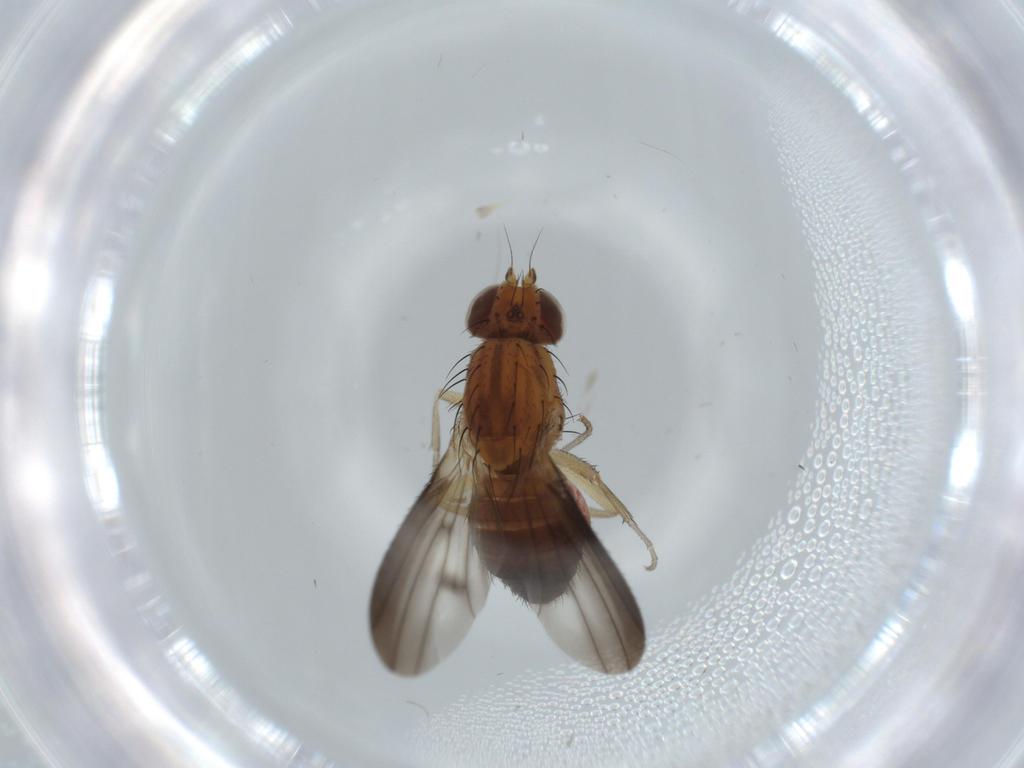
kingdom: Animalia
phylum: Arthropoda
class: Insecta
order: Diptera
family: Heleomyzidae
